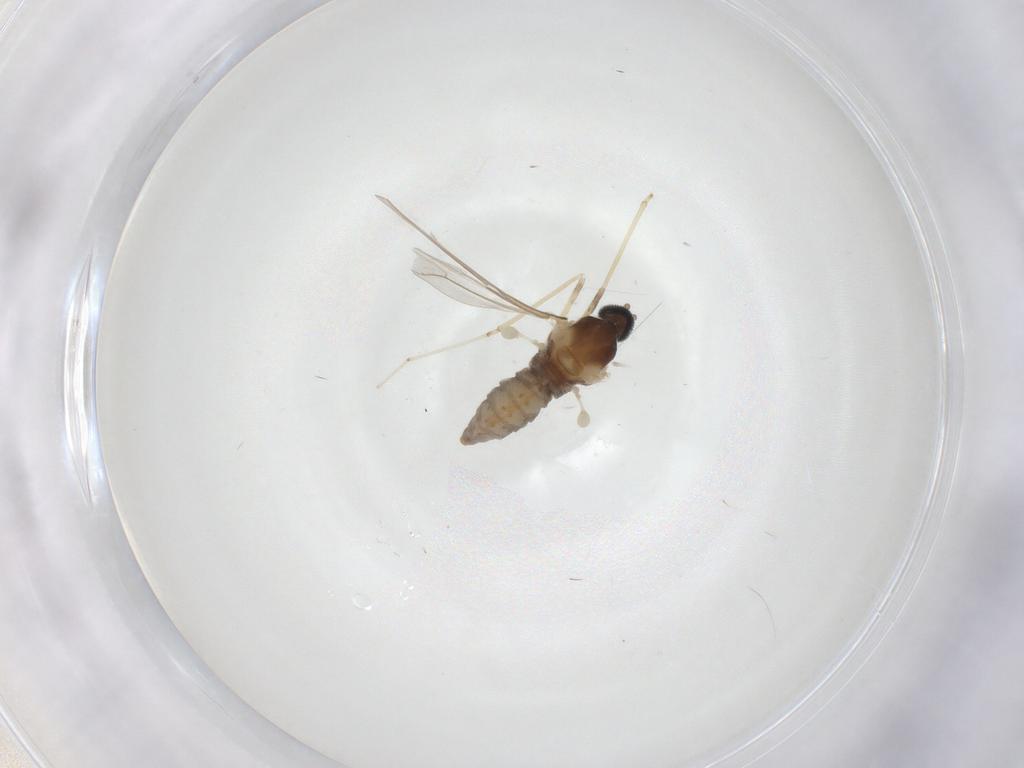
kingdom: Animalia
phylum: Arthropoda
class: Insecta
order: Diptera
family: Cecidomyiidae
